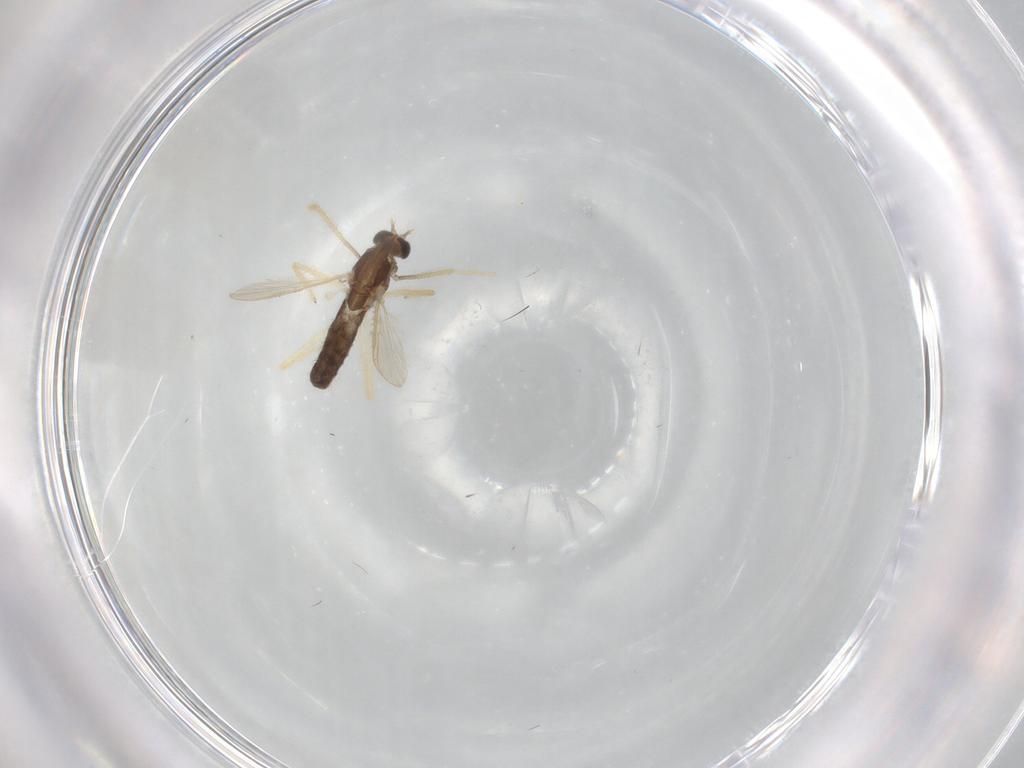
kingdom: Animalia
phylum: Arthropoda
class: Insecta
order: Diptera
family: Chironomidae
